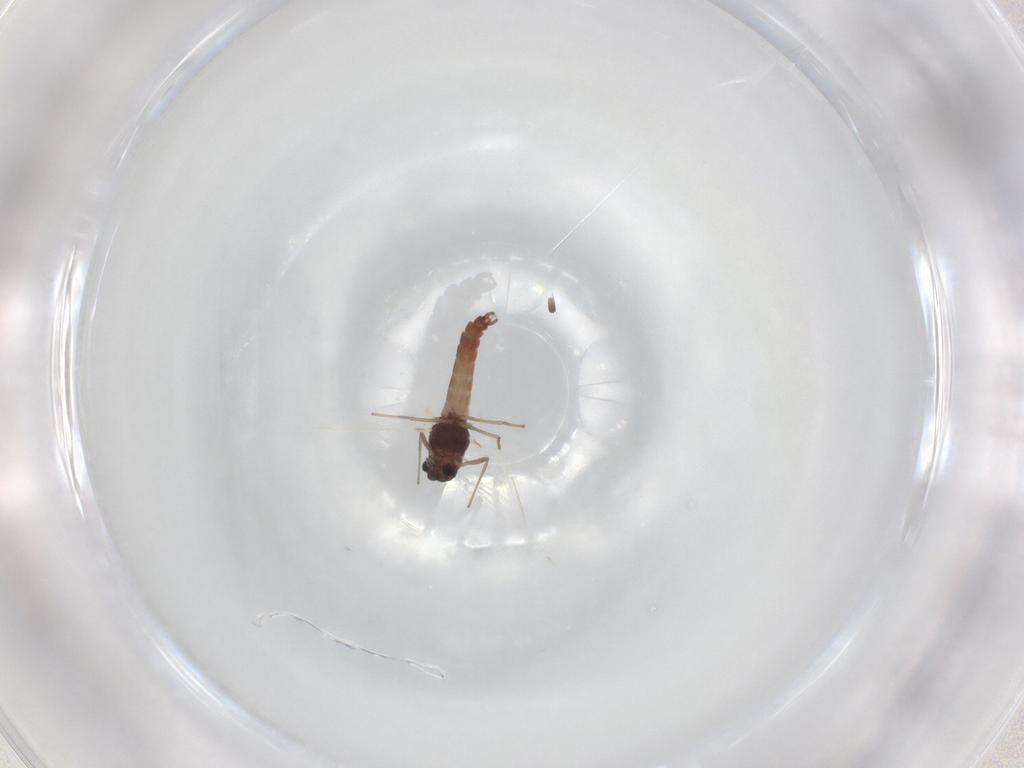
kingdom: Animalia
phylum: Arthropoda
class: Insecta
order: Diptera
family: Chironomidae
